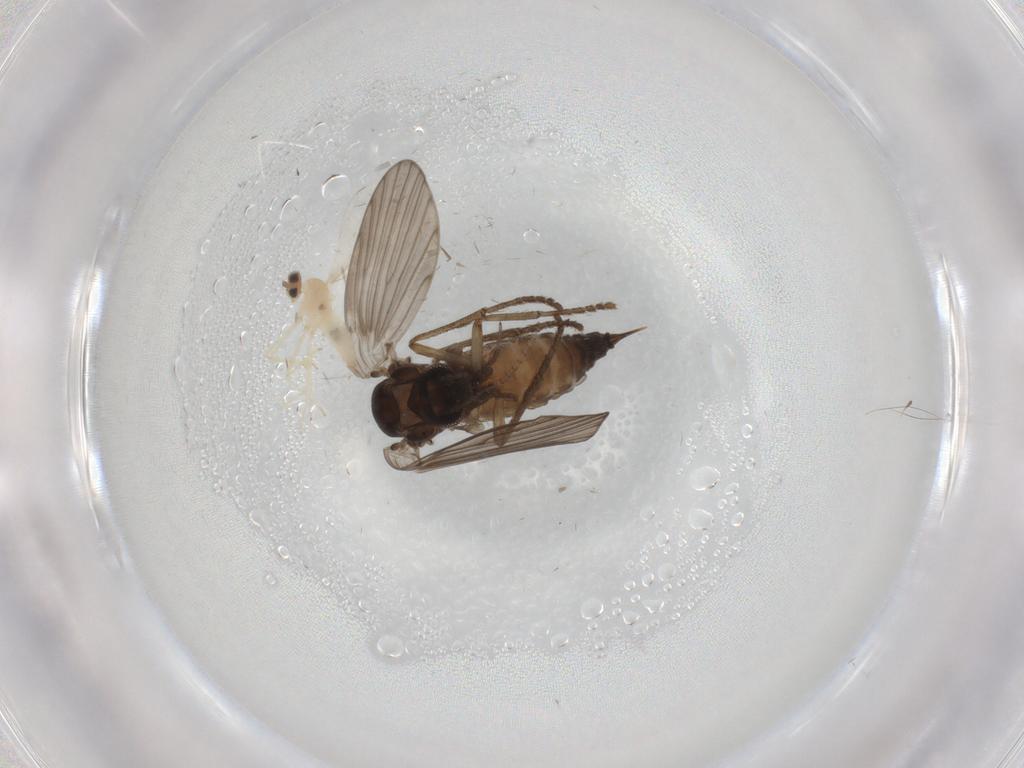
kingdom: Animalia
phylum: Arthropoda
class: Insecta
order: Diptera
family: Psychodidae
